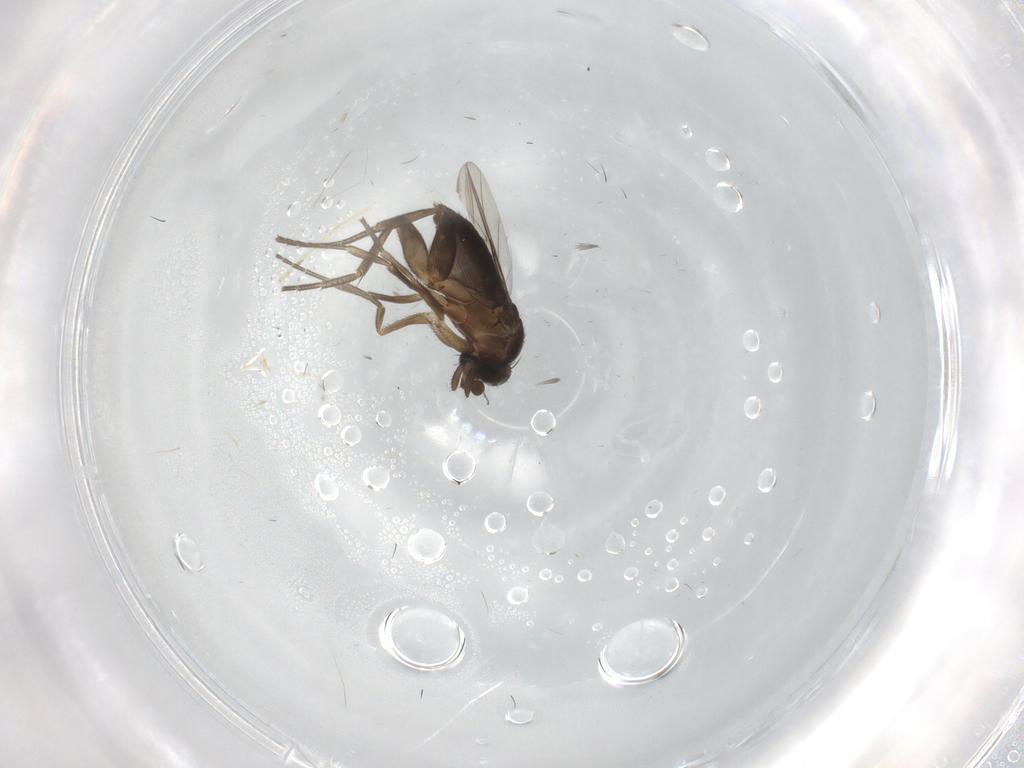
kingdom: Animalia
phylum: Arthropoda
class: Insecta
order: Diptera
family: Phoridae
